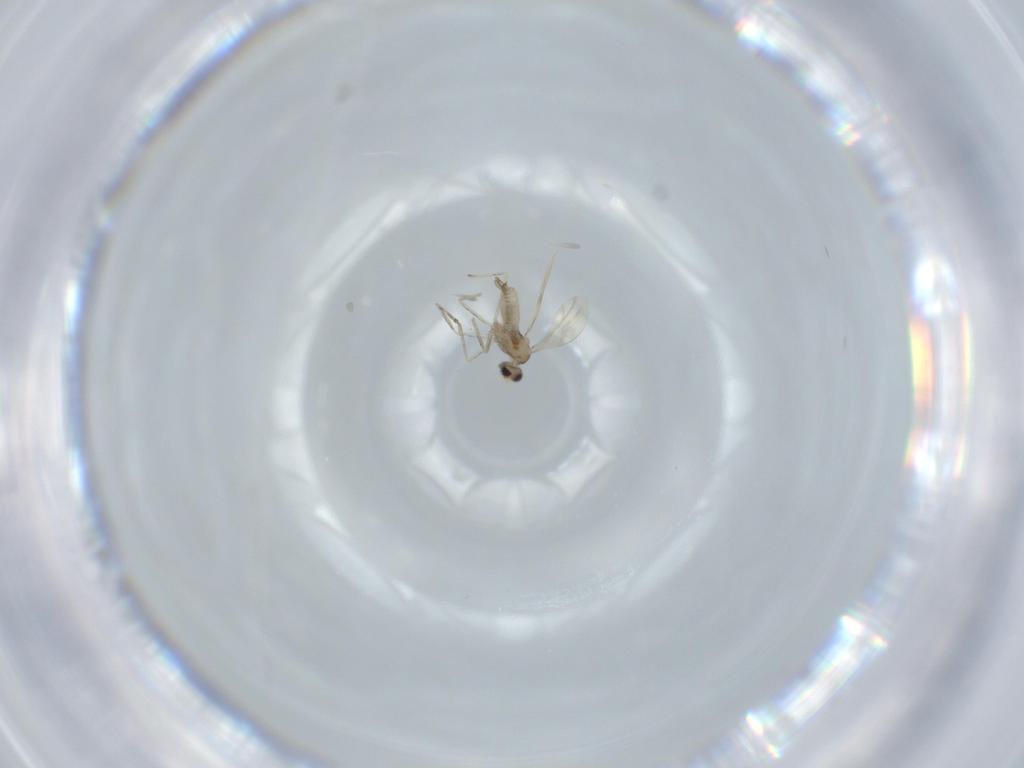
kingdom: Animalia
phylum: Arthropoda
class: Insecta
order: Diptera
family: Cecidomyiidae
